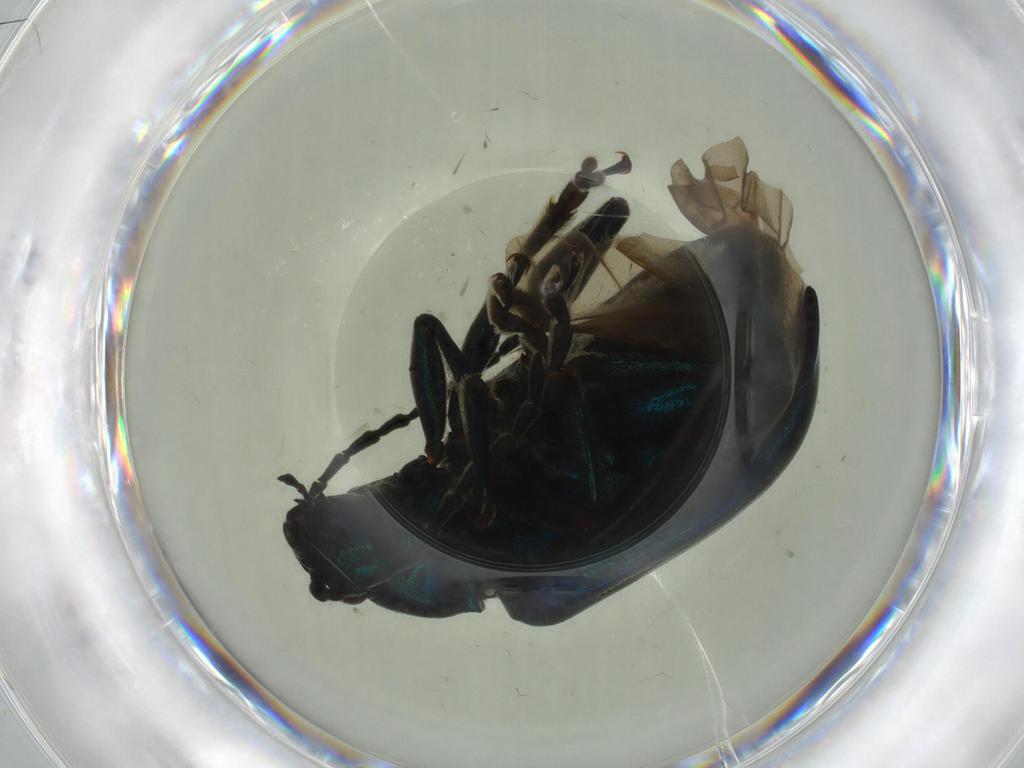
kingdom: Animalia
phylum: Arthropoda
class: Insecta
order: Coleoptera
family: Chrysomelidae
